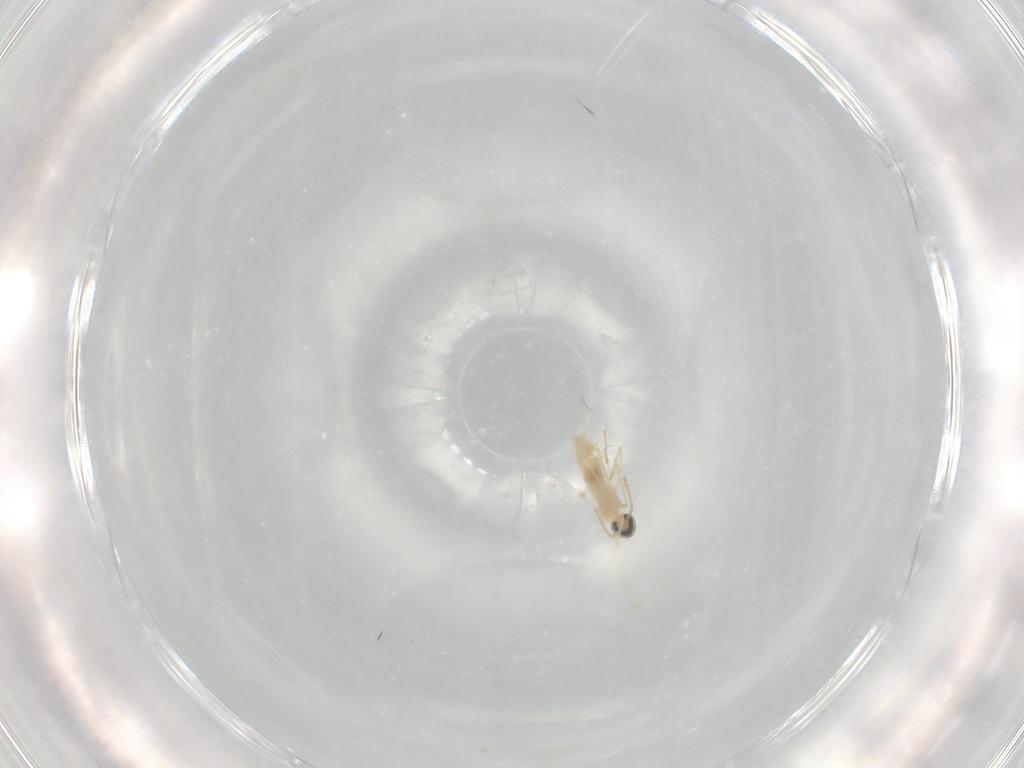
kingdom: Animalia
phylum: Arthropoda
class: Insecta
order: Diptera
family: Cecidomyiidae
